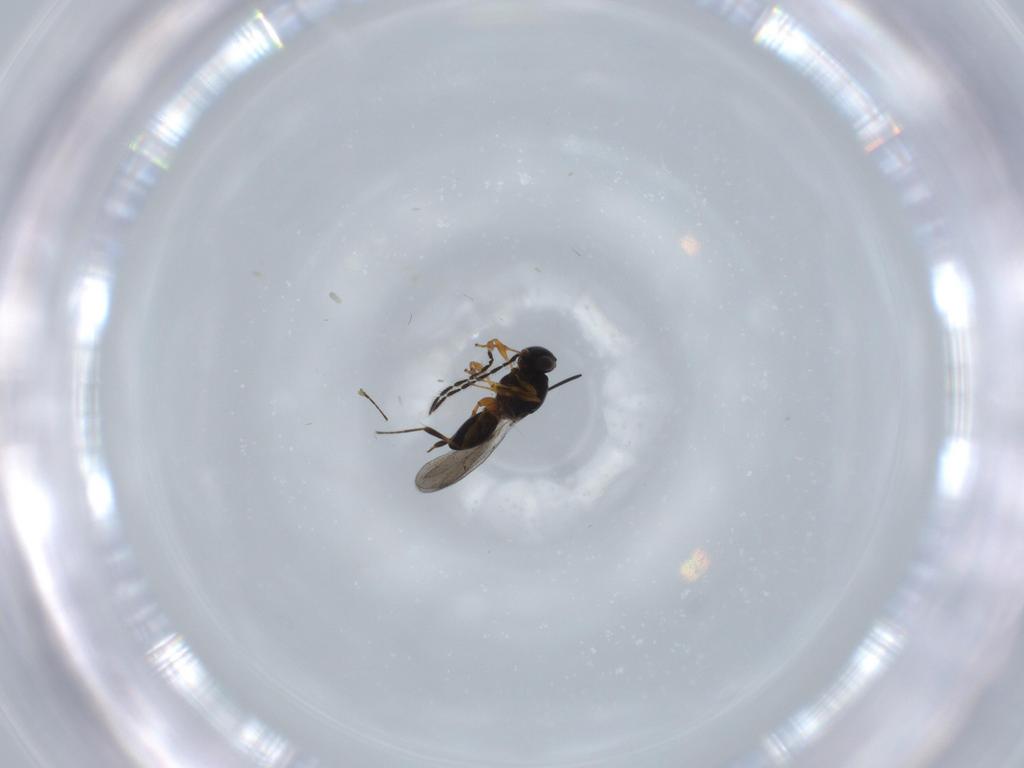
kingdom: Animalia
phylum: Arthropoda
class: Insecta
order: Hymenoptera
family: Platygastridae
